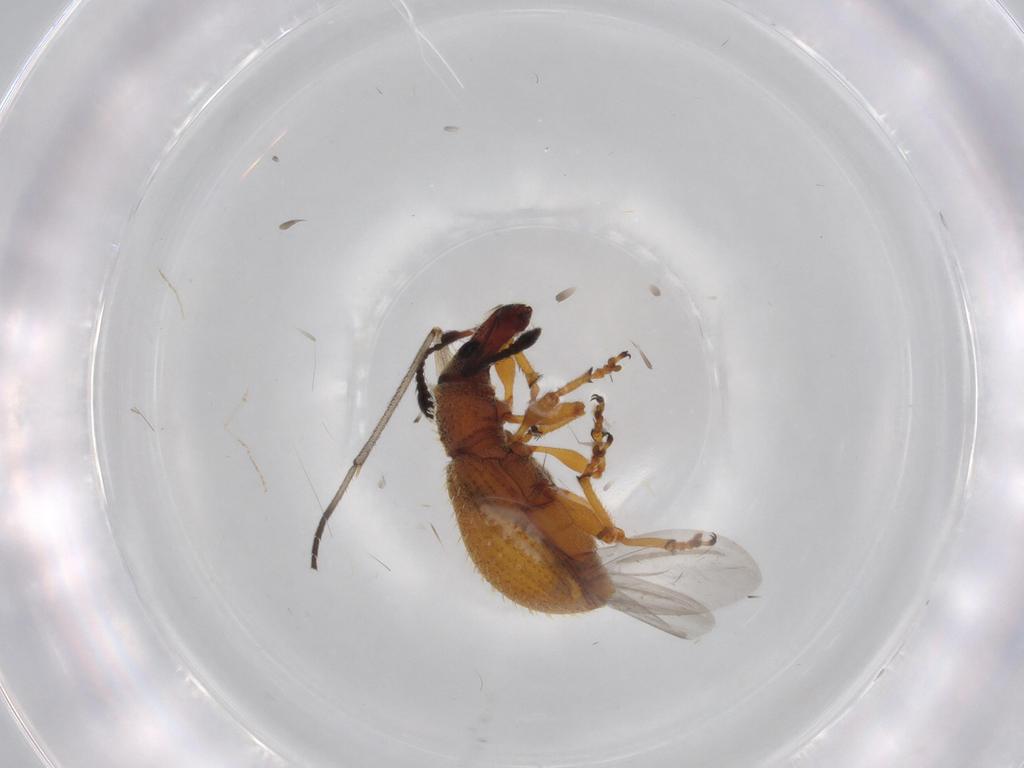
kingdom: Animalia
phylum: Arthropoda
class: Insecta
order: Coleoptera
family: Curculionidae
